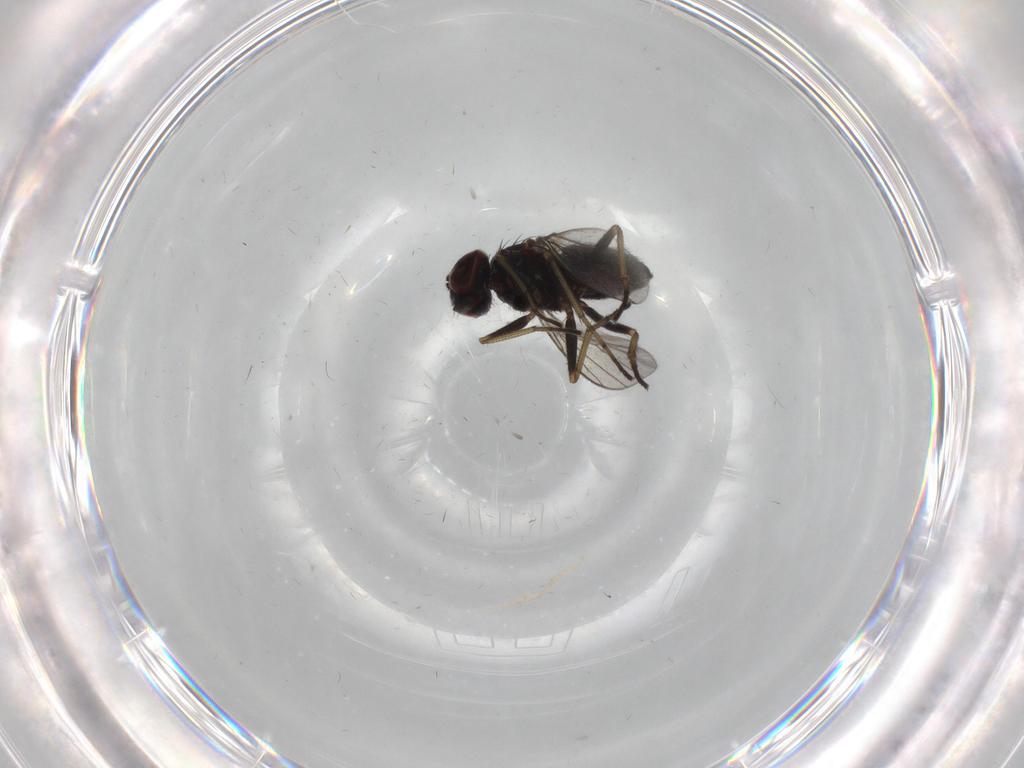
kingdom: Animalia
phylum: Arthropoda
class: Insecta
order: Diptera
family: Dolichopodidae
